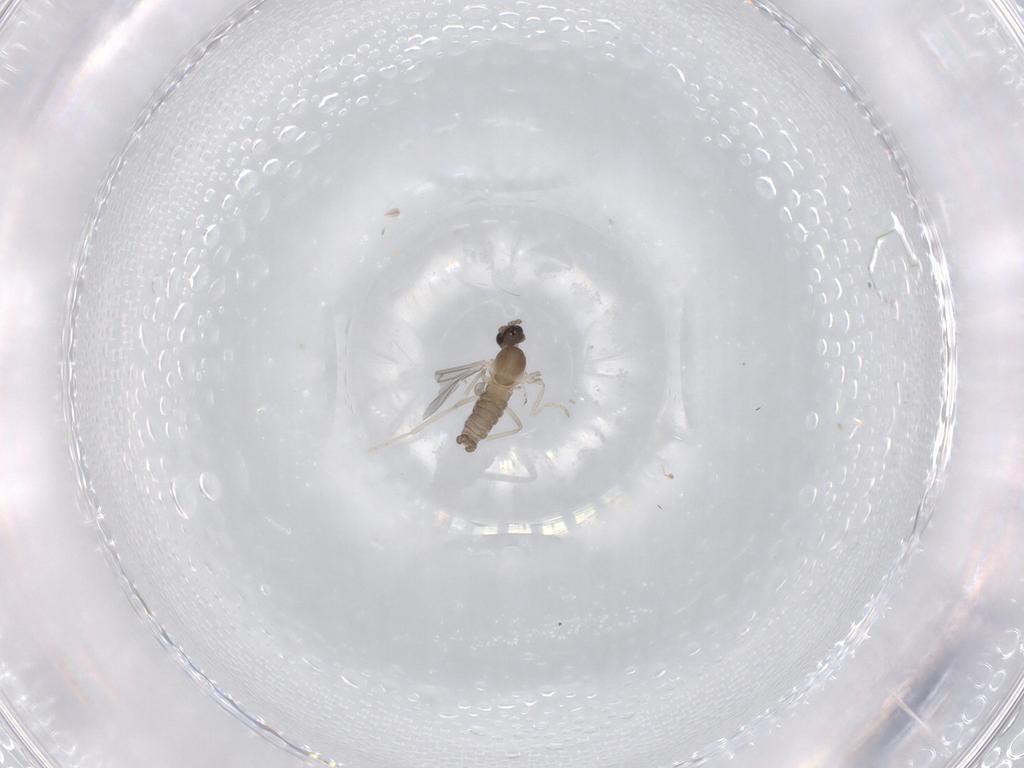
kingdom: Animalia
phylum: Arthropoda
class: Insecta
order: Diptera
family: Cecidomyiidae
